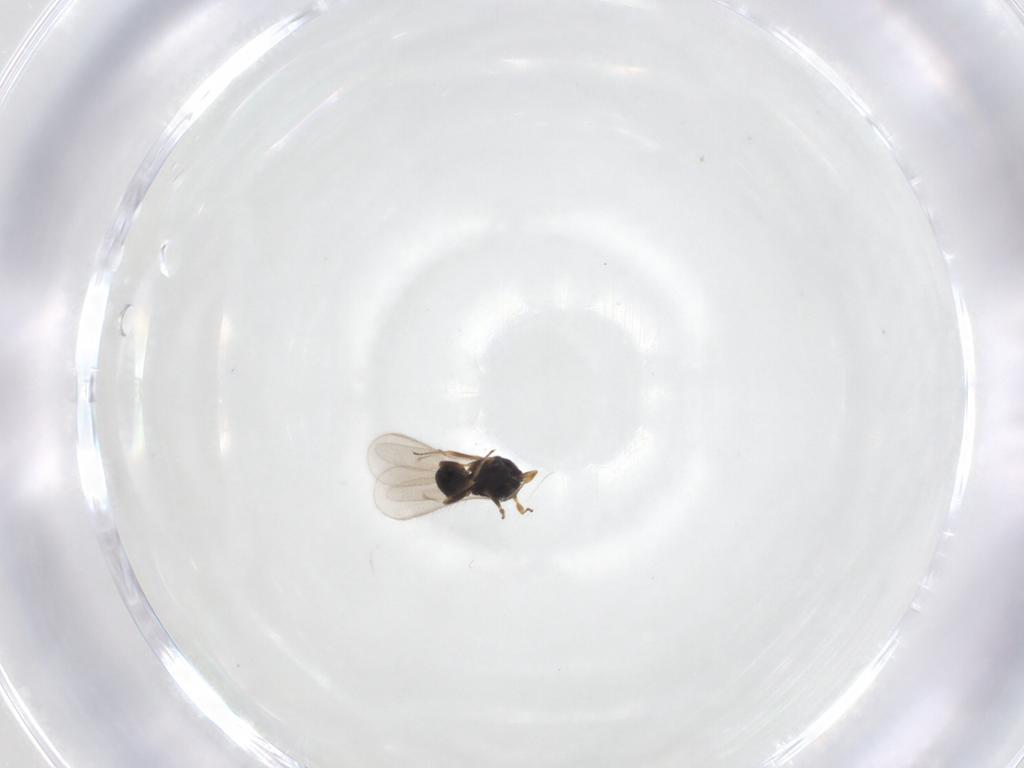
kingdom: Animalia
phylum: Arthropoda
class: Insecta
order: Hymenoptera
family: Scelionidae
